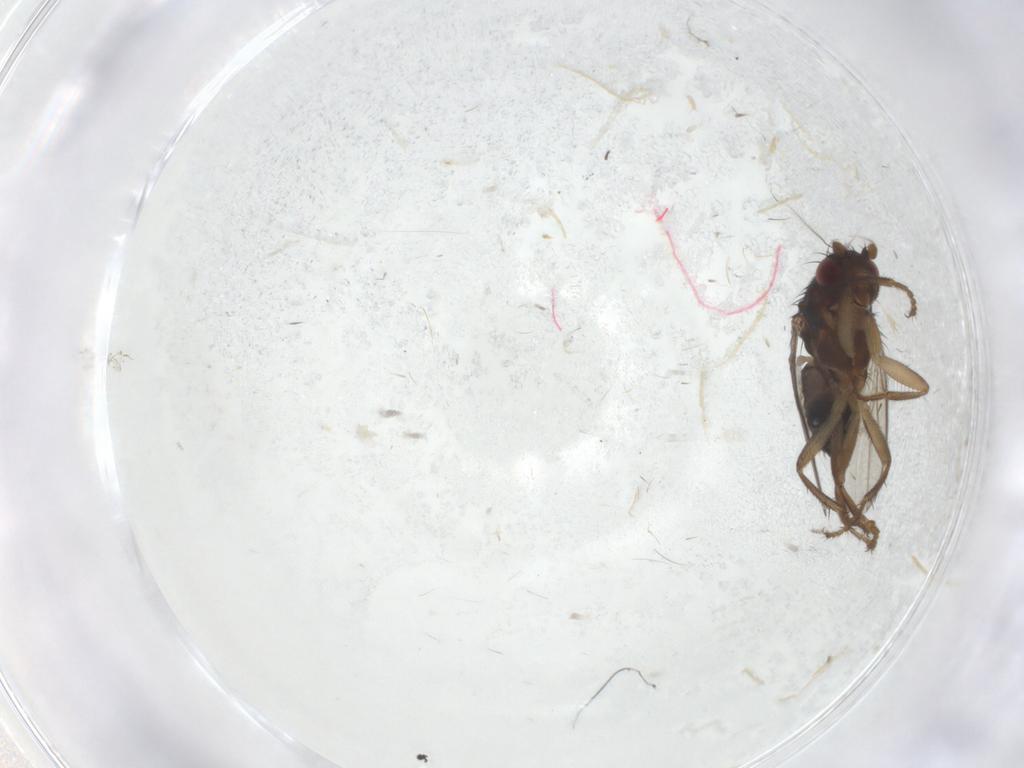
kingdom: Animalia
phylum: Arthropoda
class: Insecta
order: Diptera
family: Sphaeroceridae
